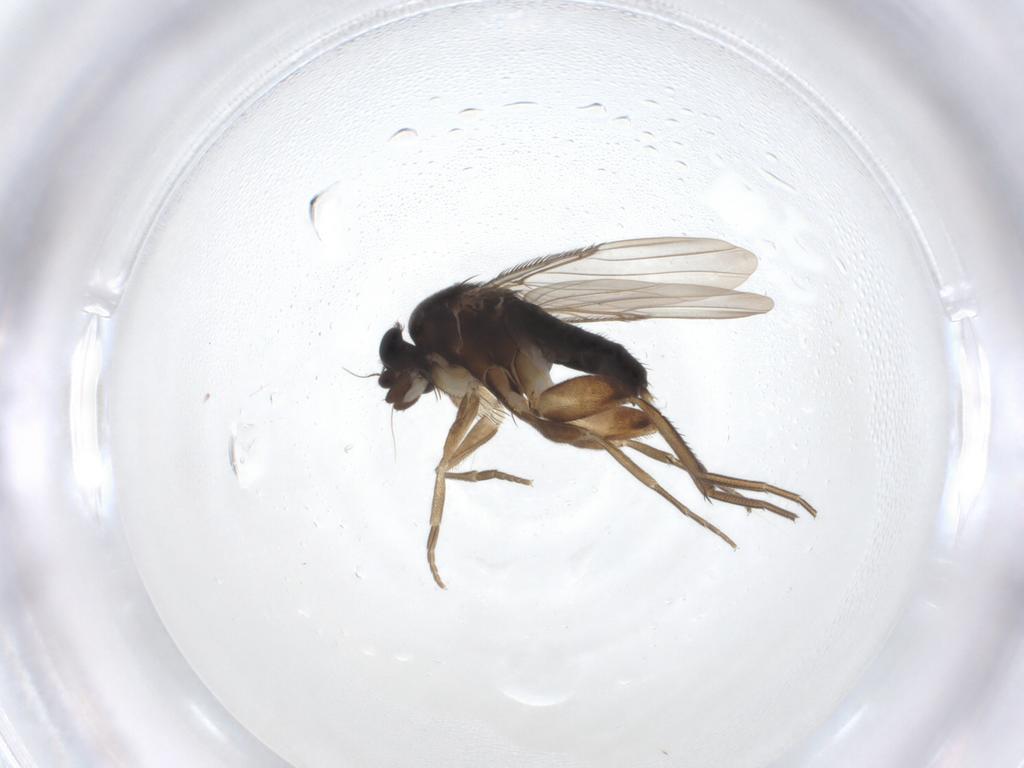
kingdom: Animalia
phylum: Arthropoda
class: Insecta
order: Diptera
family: Phoridae
